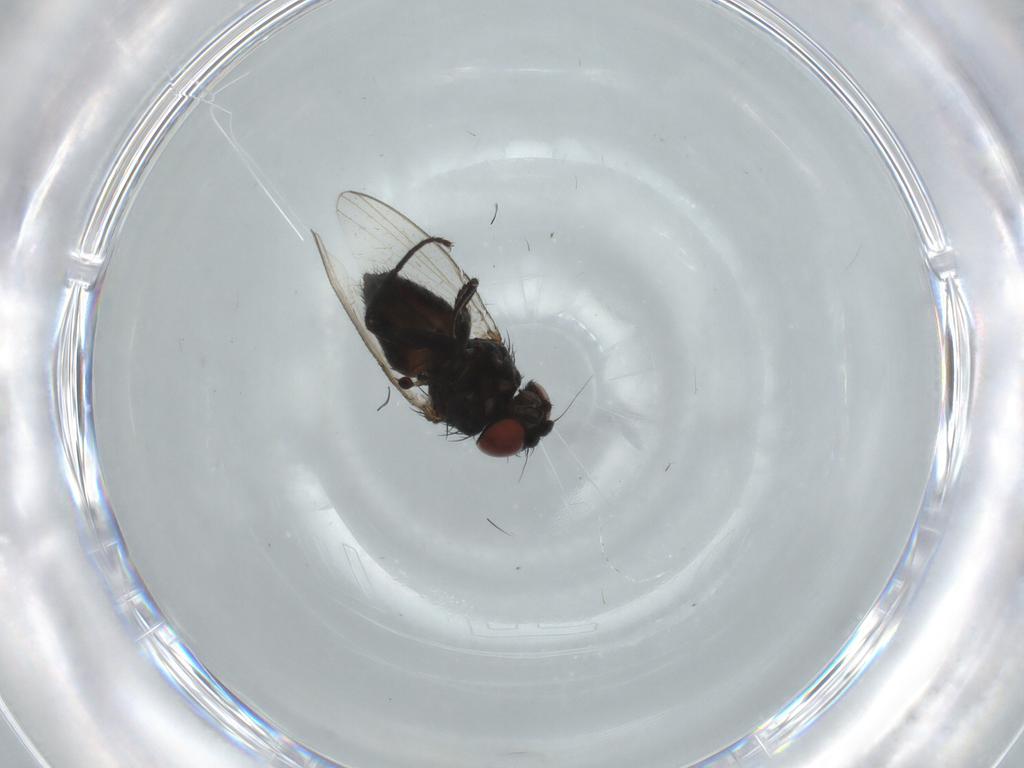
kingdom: Animalia
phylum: Arthropoda
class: Insecta
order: Diptera
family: Milichiidae
